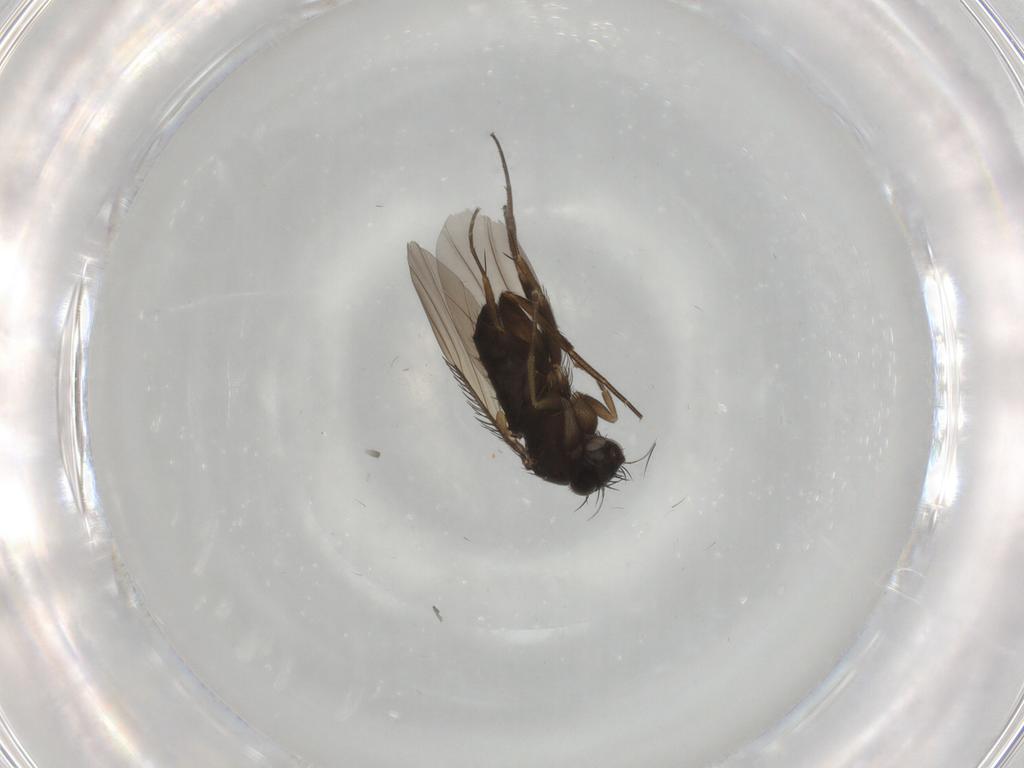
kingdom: Animalia
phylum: Arthropoda
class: Insecta
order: Diptera
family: Phoridae
